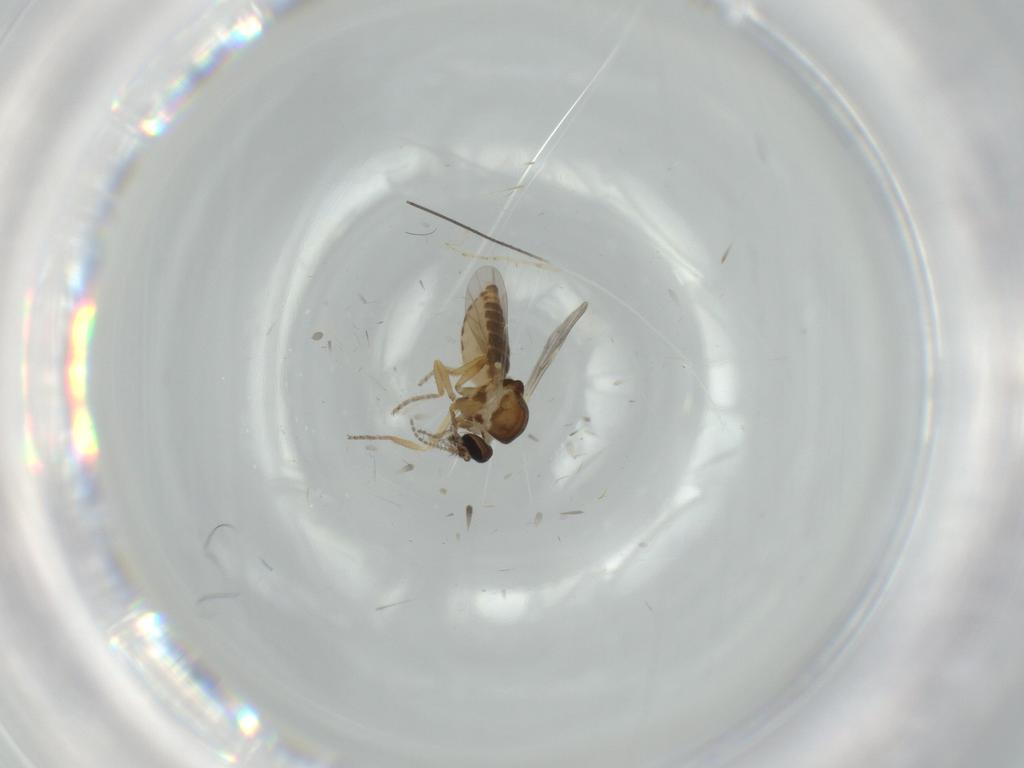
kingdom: Animalia
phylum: Arthropoda
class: Insecta
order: Diptera
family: Ceratopogonidae
